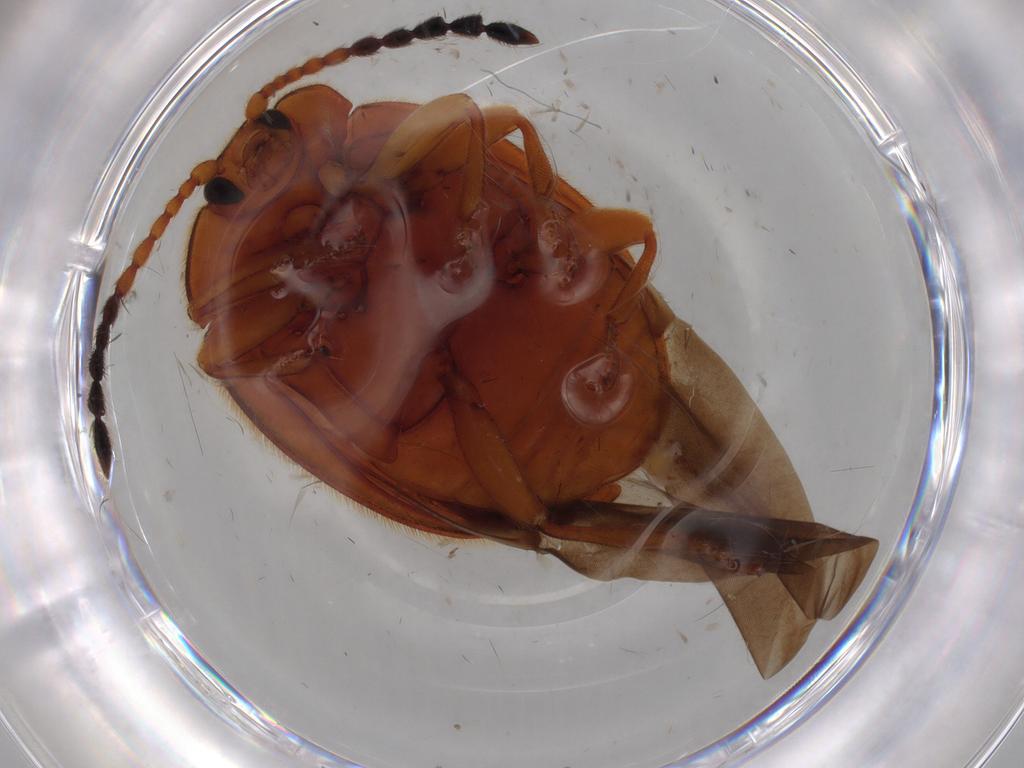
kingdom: Animalia
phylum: Arthropoda
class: Insecta
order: Coleoptera
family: Endomychidae
